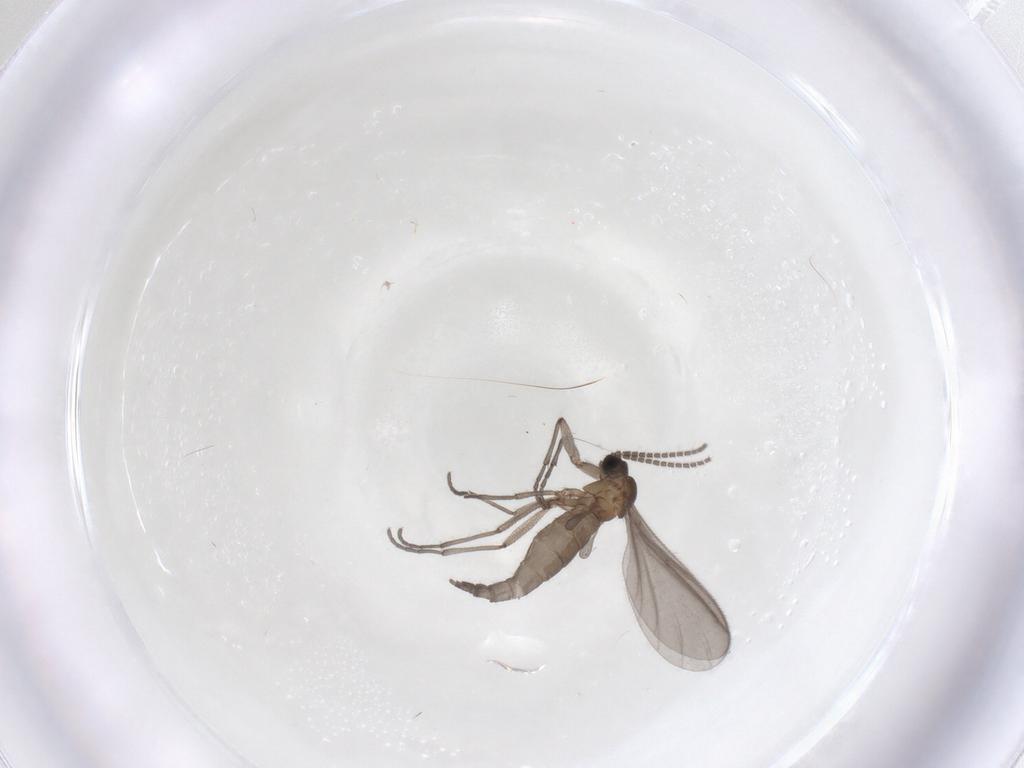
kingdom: Animalia
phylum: Arthropoda
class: Insecta
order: Diptera
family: Sciaridae
